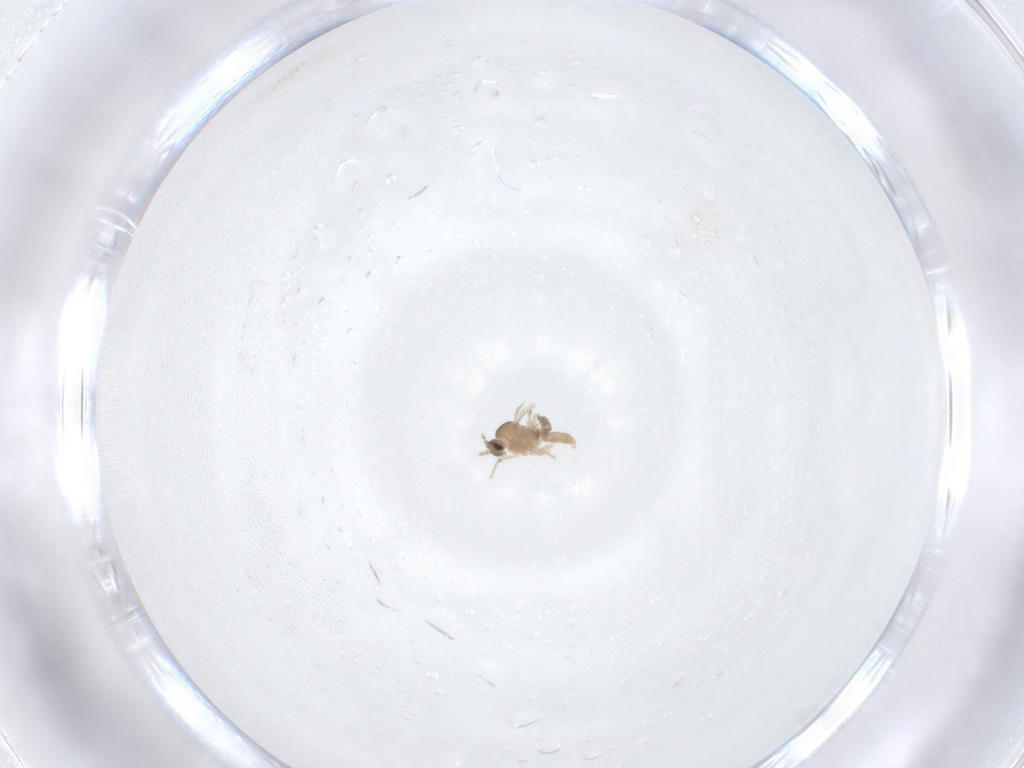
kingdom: Animalia
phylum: Arthropoda
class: Insecta
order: Diptera
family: Cecidomyiidae
